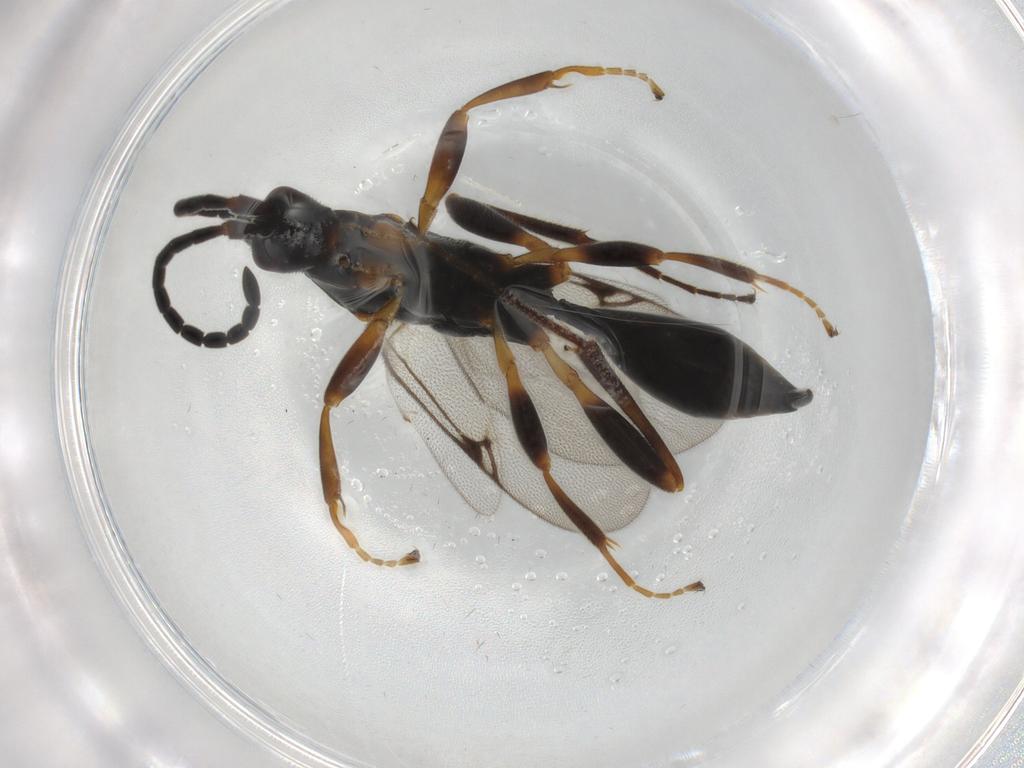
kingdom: Animalia
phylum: Arthropoda
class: Insecta
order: Hymenoptera
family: Proctotrupidae
